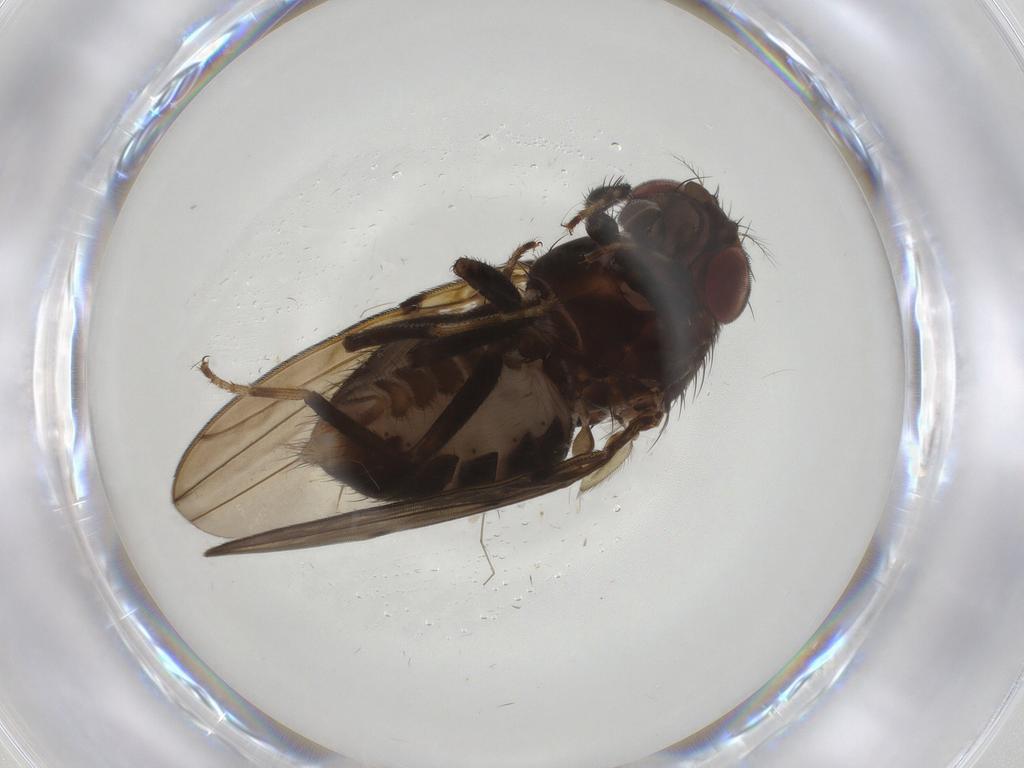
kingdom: Animalia
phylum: Arthropoda
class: Insecta
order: Diptera
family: Drosophilidae
